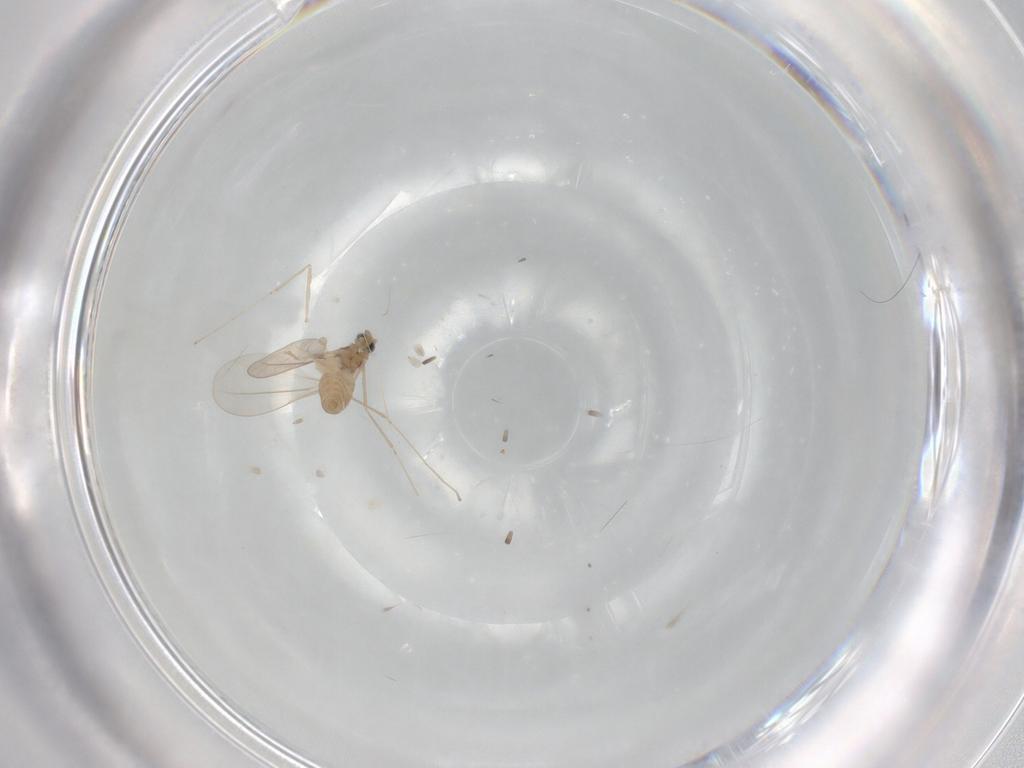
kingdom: Animalia
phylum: Arthropoda
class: Insecta
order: Diptera
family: Cecidomyiidae
